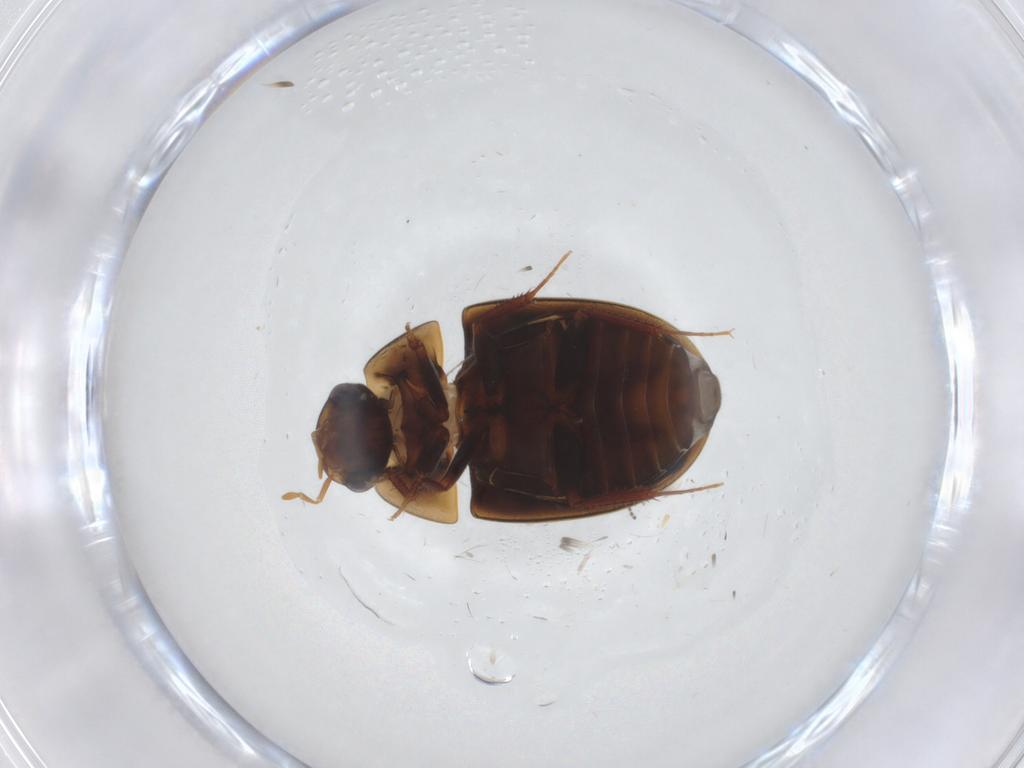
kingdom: Animalia
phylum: Arthropoda
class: Insecta
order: Coleoptera
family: Hydrophilidae
